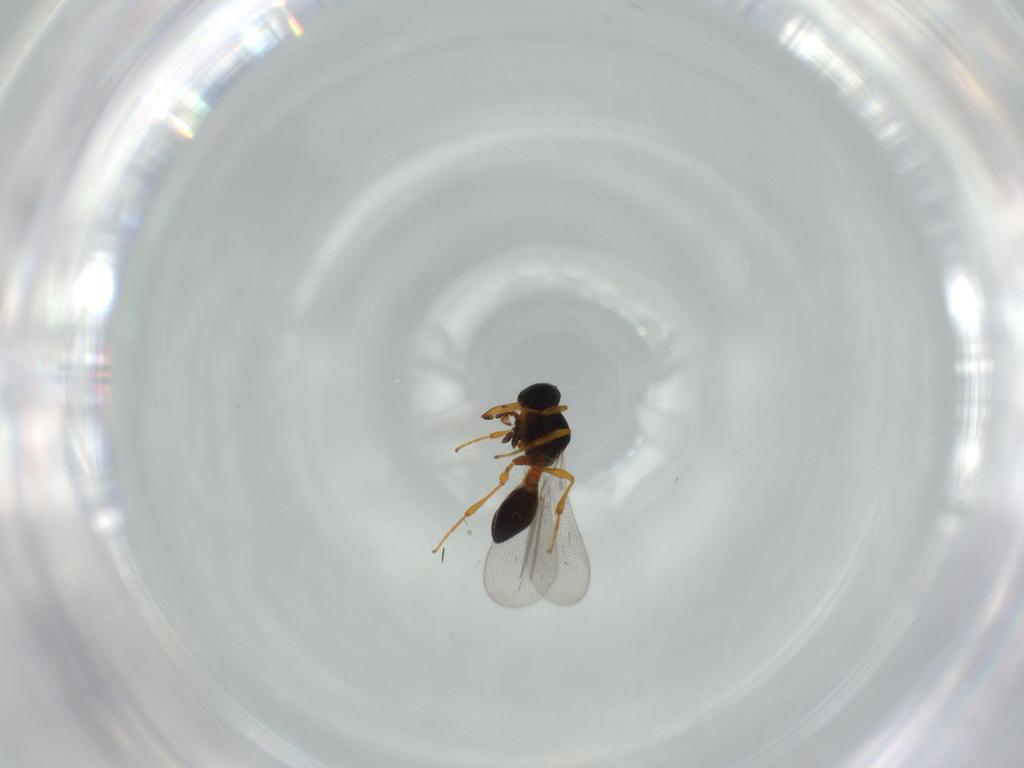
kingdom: Animalia
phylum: Arthropoda
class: Insecta
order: Hymenoptera
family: Platygastridae
